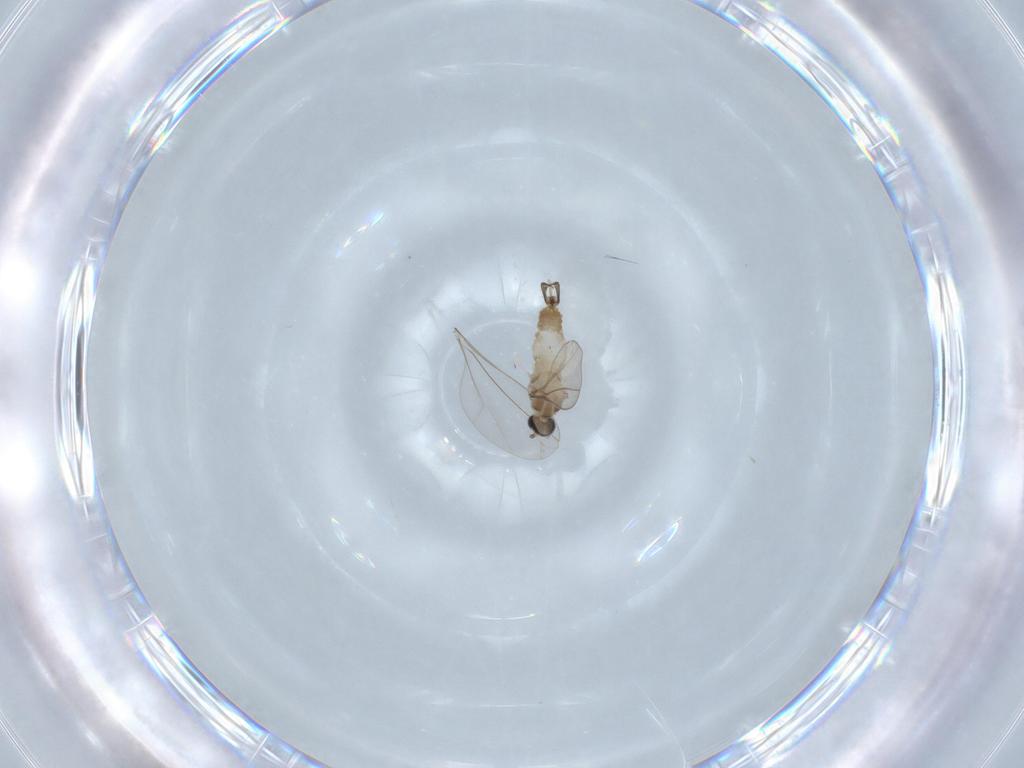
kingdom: Animalia
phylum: Arthropoda
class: Insecta
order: Diptera
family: Cecidomyiidae
